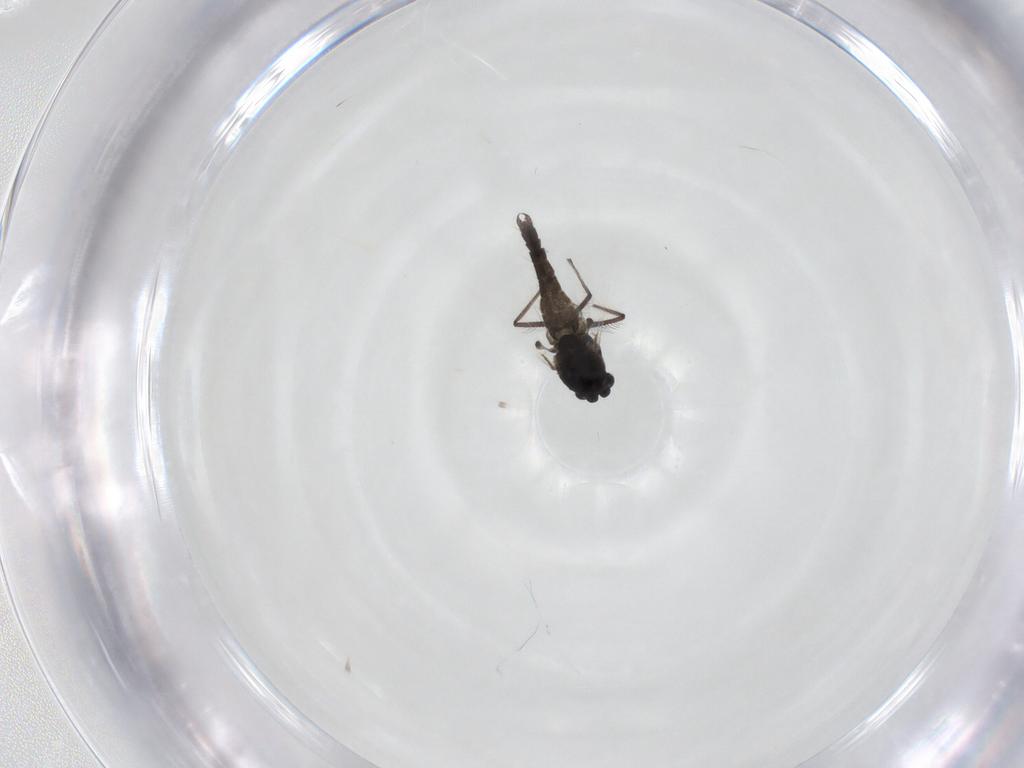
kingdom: Animalia
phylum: Arthropoda
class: Insecta
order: Diptera
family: Chironomidae
